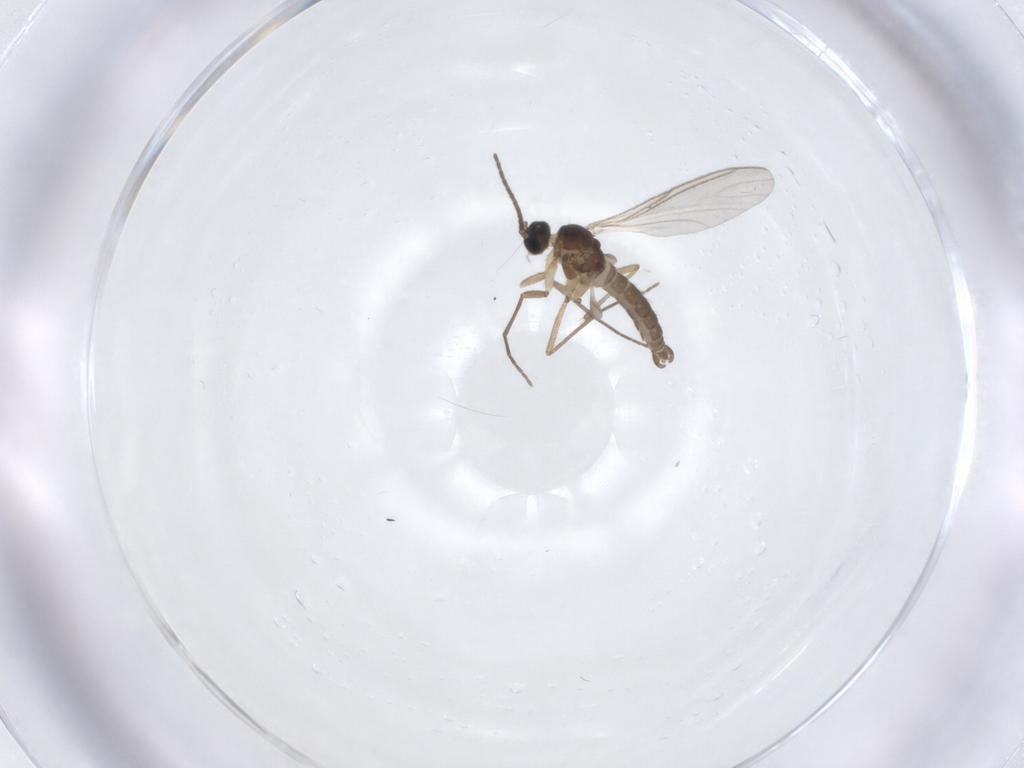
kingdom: Animalia
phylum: Arthropoda
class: Insecta
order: Diptera
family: Sciaridae
